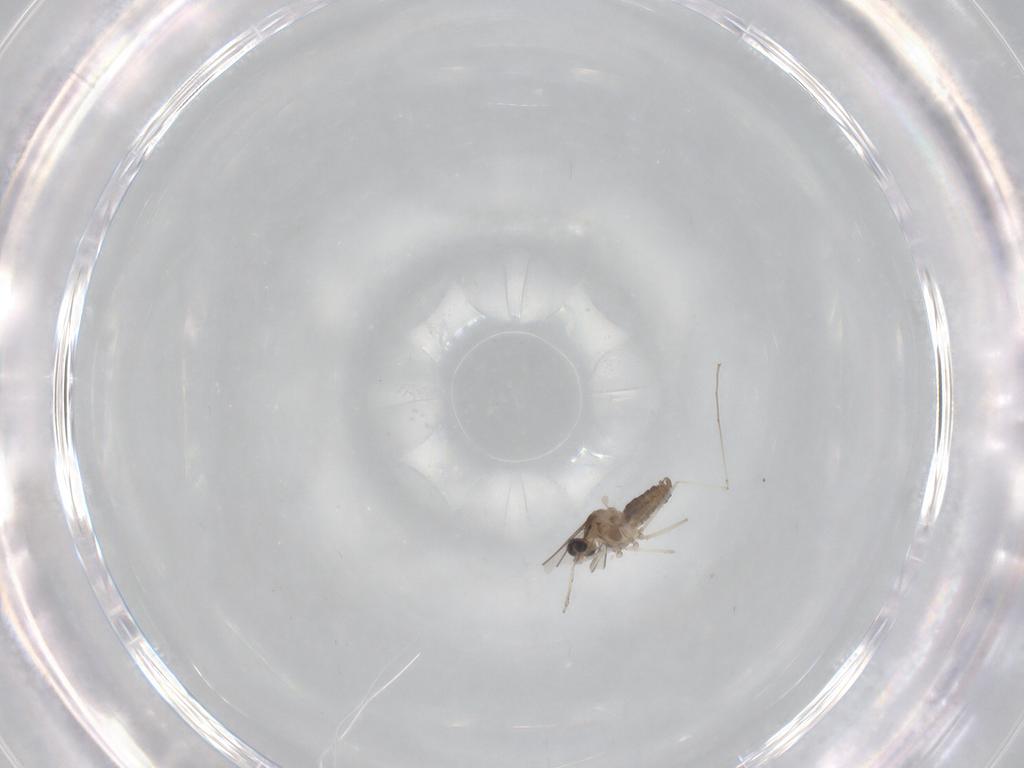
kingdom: Animalia
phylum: Arthropoda
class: Insecta
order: Diptera
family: Cecidomyiidae
